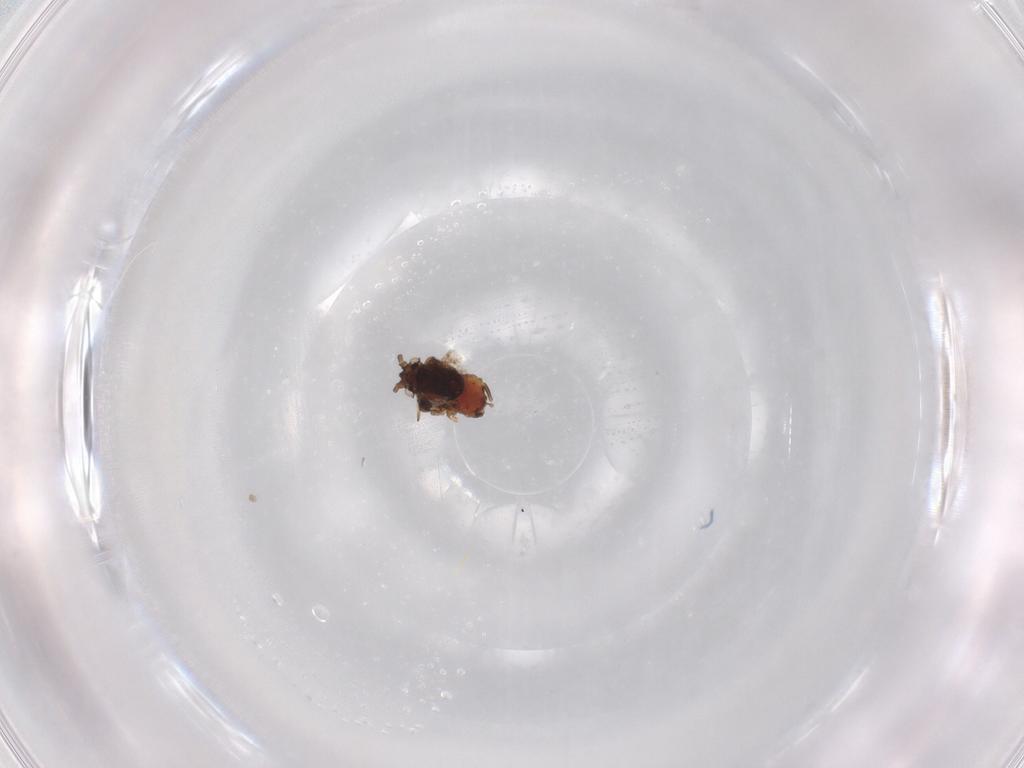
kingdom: Animalia
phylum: Arthropoda
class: Insecta
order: Hemiptera
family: Aphididae
